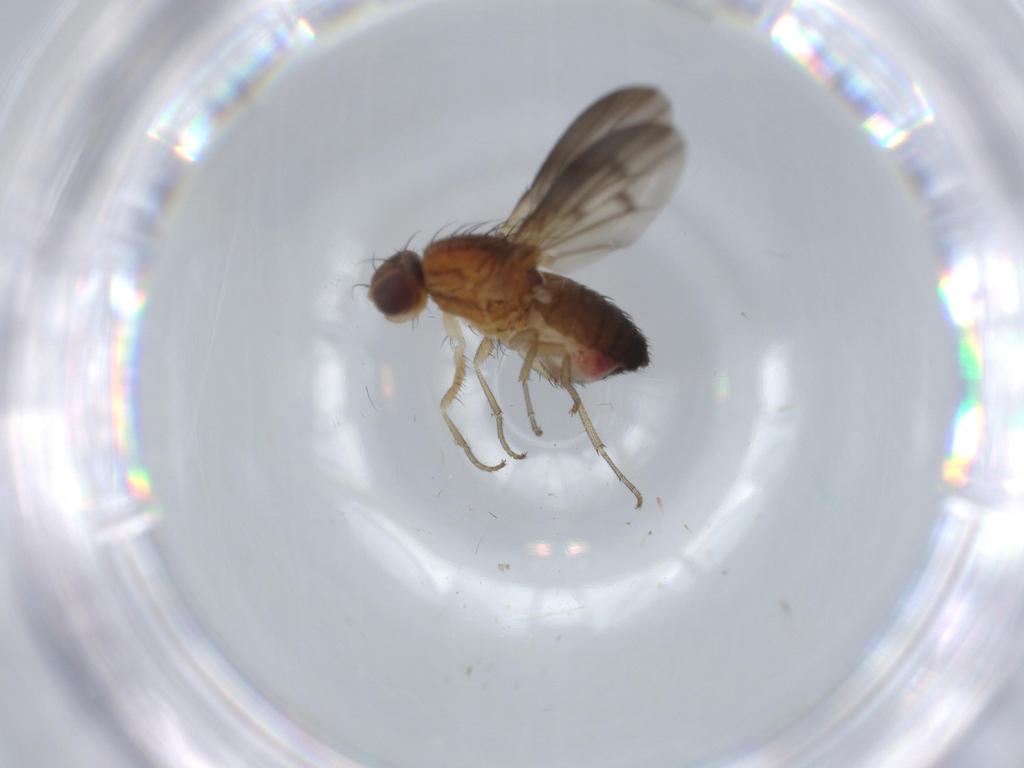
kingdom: Animalia
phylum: Arthropoda
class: Insecta
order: Diptera
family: Heleomyzidae
